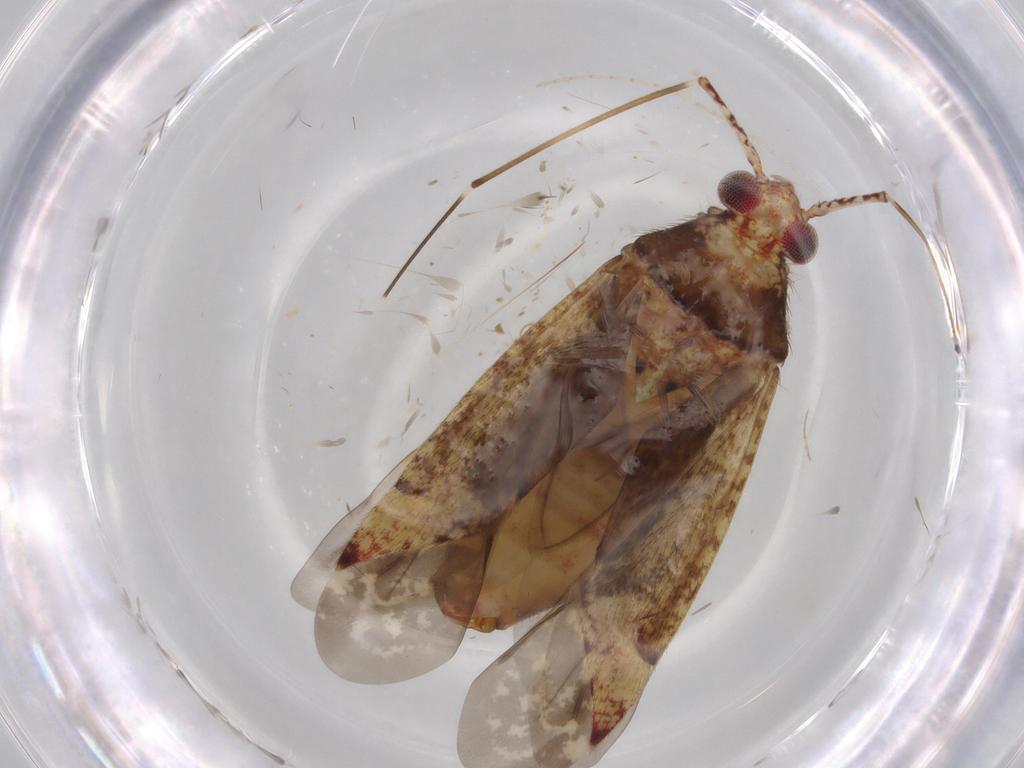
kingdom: Animalia
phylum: Arthropoda
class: Insecta
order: Hemiptera
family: Miridae
